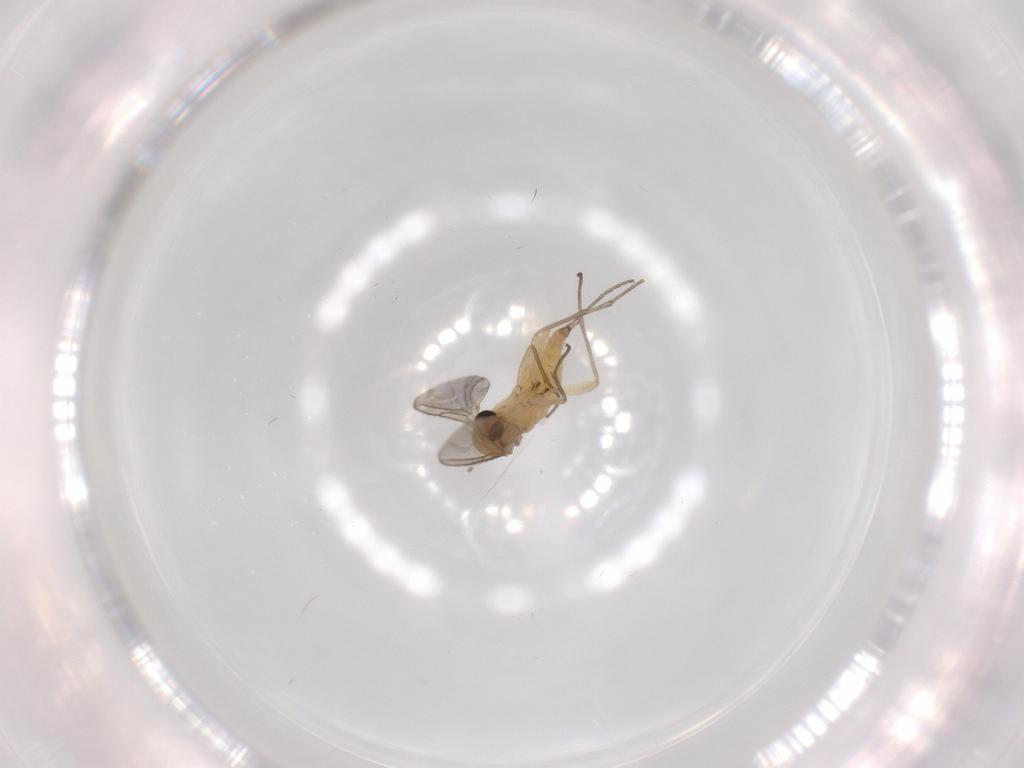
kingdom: Animalia
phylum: Arthropoda
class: Insecta
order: Diptera
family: Sciaridae
